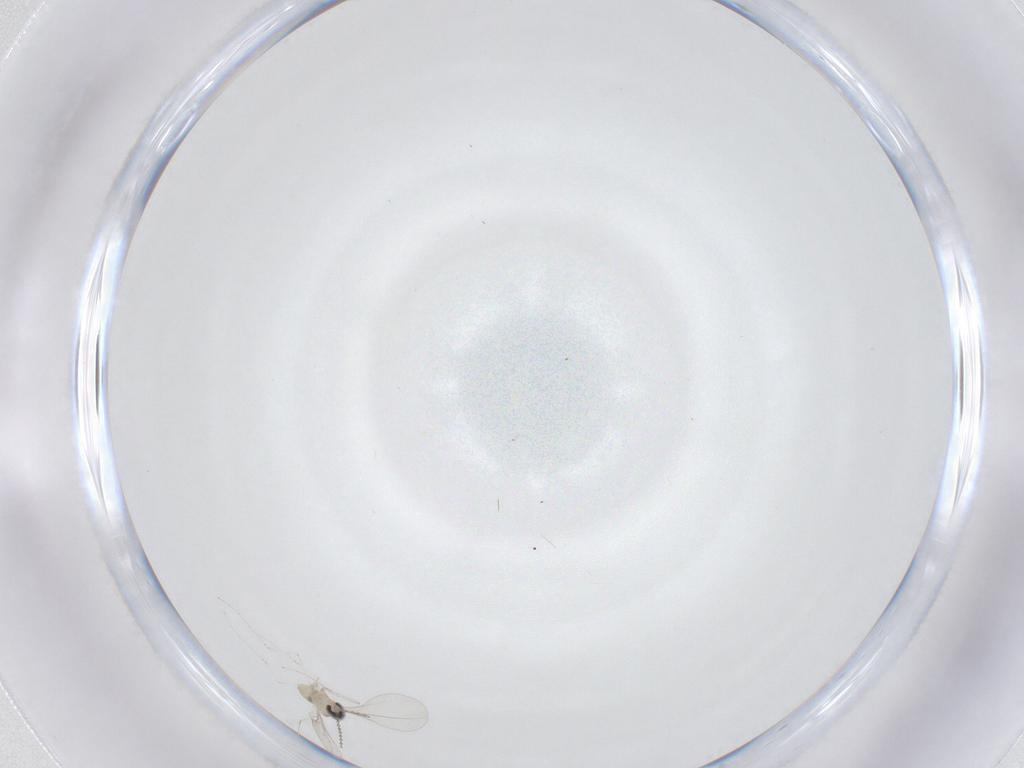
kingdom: Animalia
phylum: Arthropoda
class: Insecta
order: Diptera
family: Cecidomyiidae
